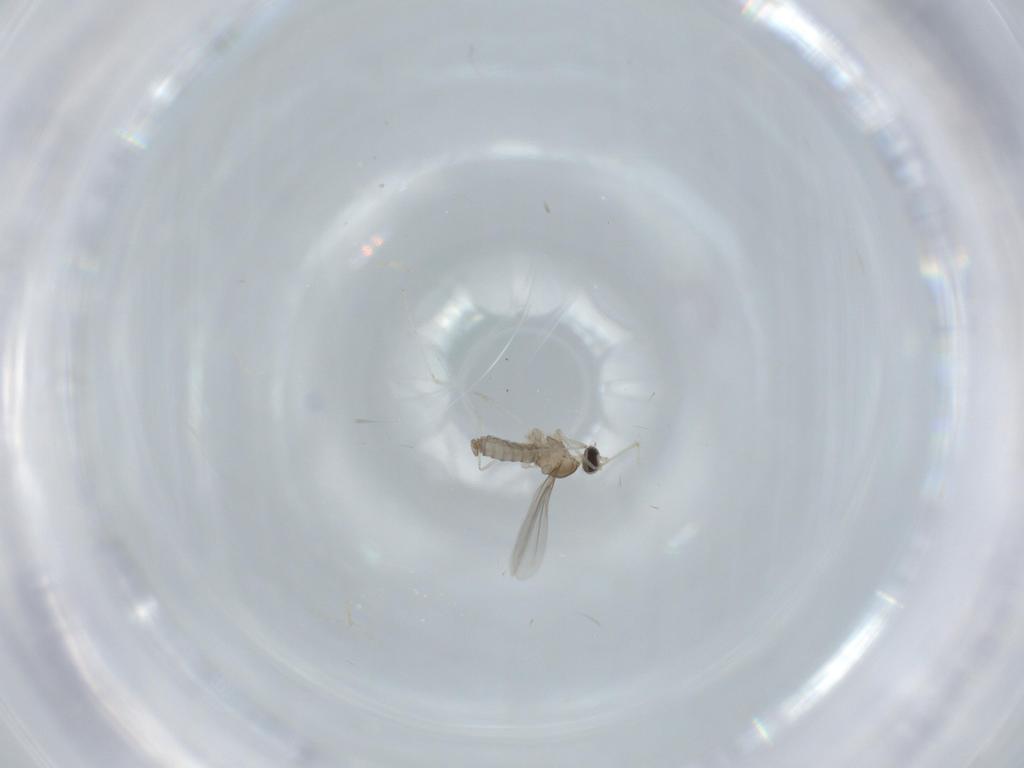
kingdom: Animalia
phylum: Arthropoda
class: Insecta
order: Diptera
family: Cecidomyiidae
